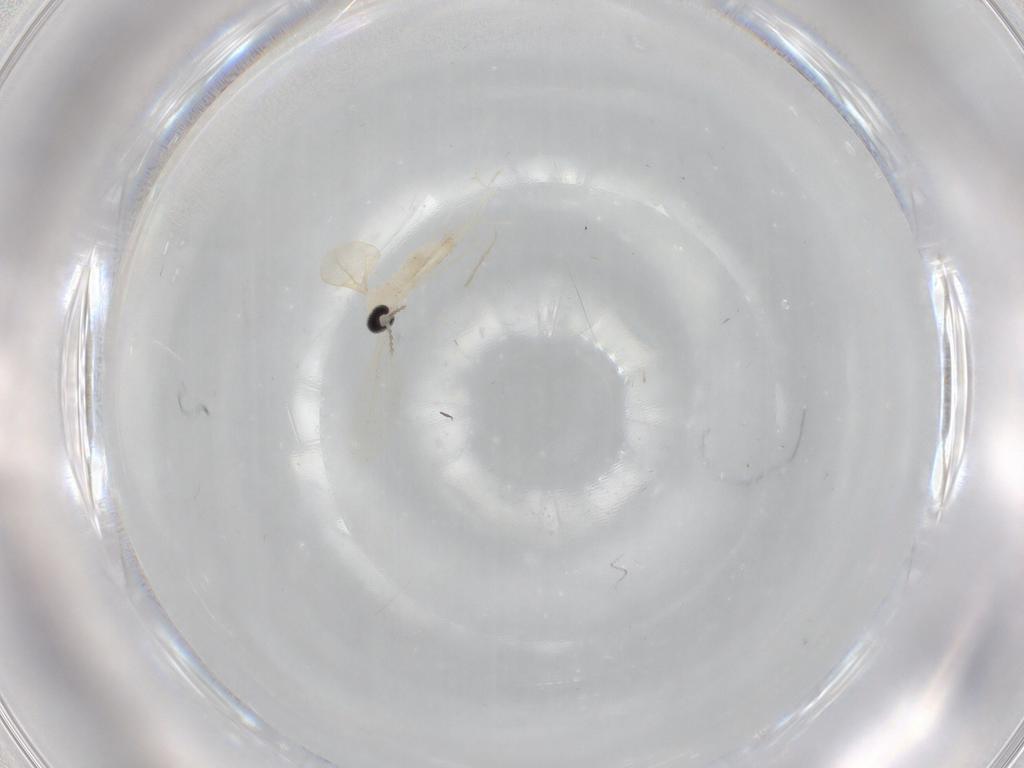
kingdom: Animalia
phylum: Arthropoda
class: Insecta
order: Diptera
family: Cecidomyiidae
